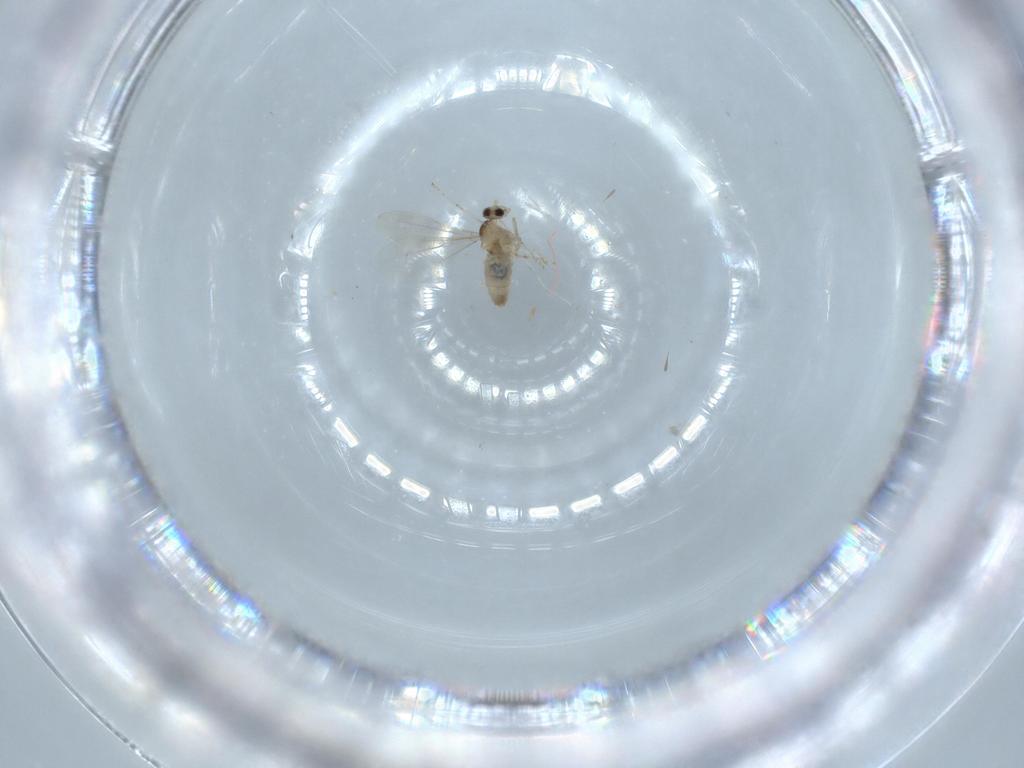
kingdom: Animalia
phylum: Arthropoda
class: Insecta
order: Diptera
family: Cecidomyiidae
